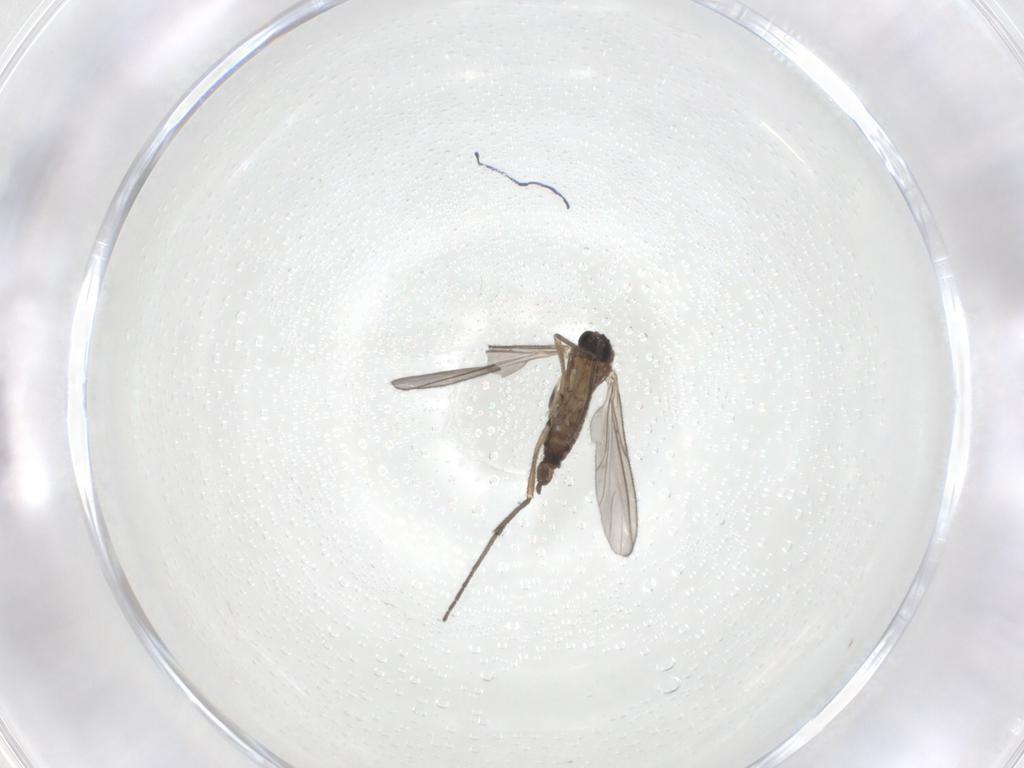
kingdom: Animalia
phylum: Arthropoda
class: Insecta
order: Diptera
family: Sciaridae
